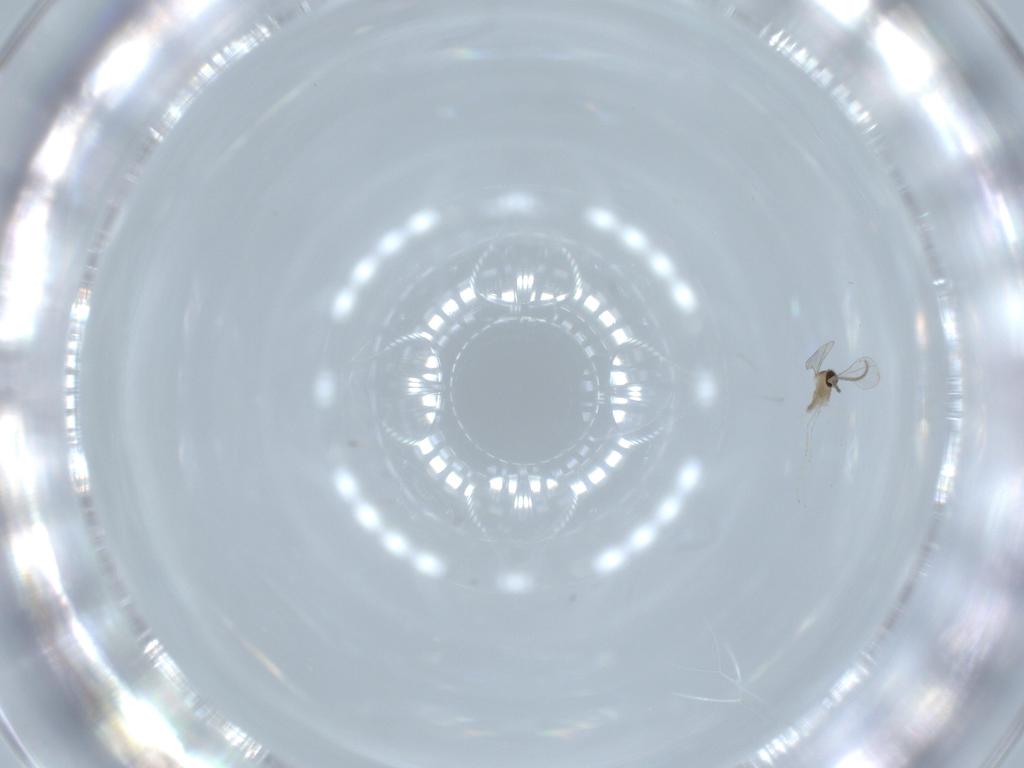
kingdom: Animalia
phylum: Arthropoda
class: Insecta
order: Diptera
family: Cecidomyiidae
